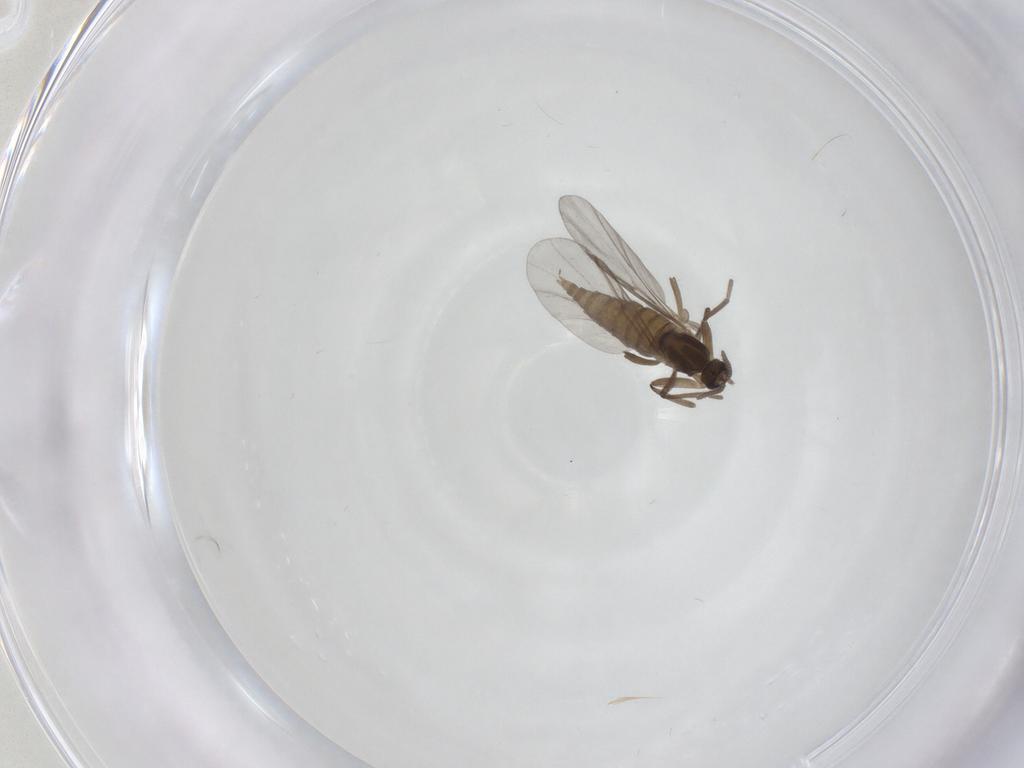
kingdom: Animalia
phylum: Arthropoda
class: Insecta
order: Diptera
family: Cecidomyiidae
